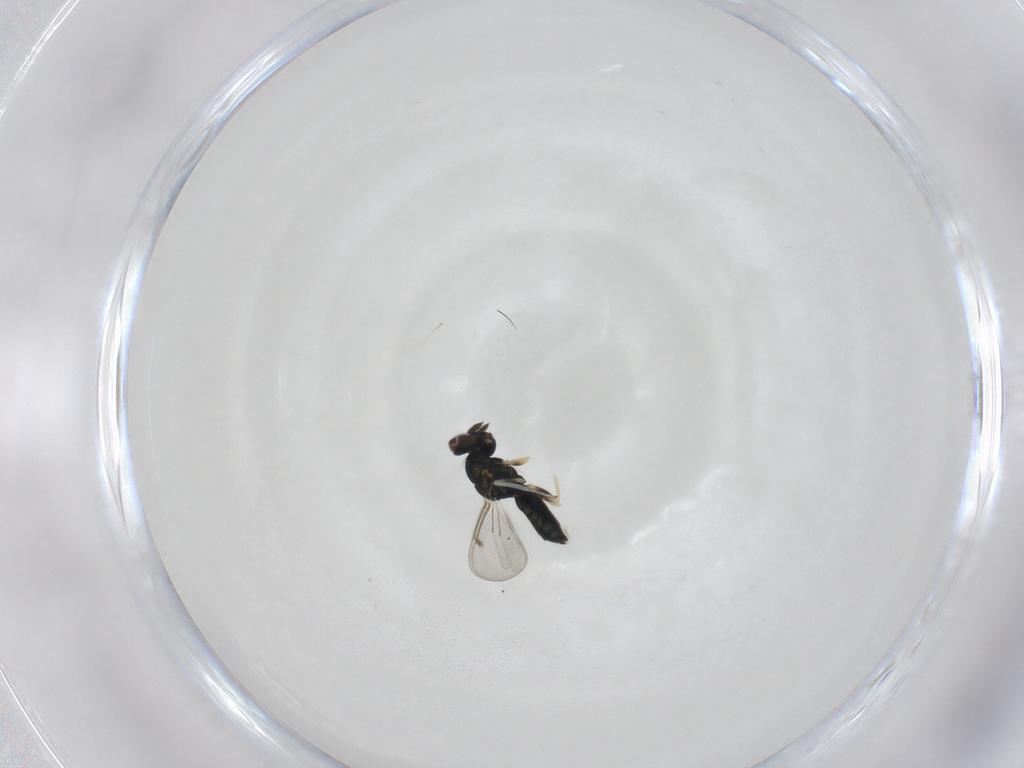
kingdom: Animalia
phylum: Arthropoda
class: Insecta
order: Hymenoptera
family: Eulophidae
